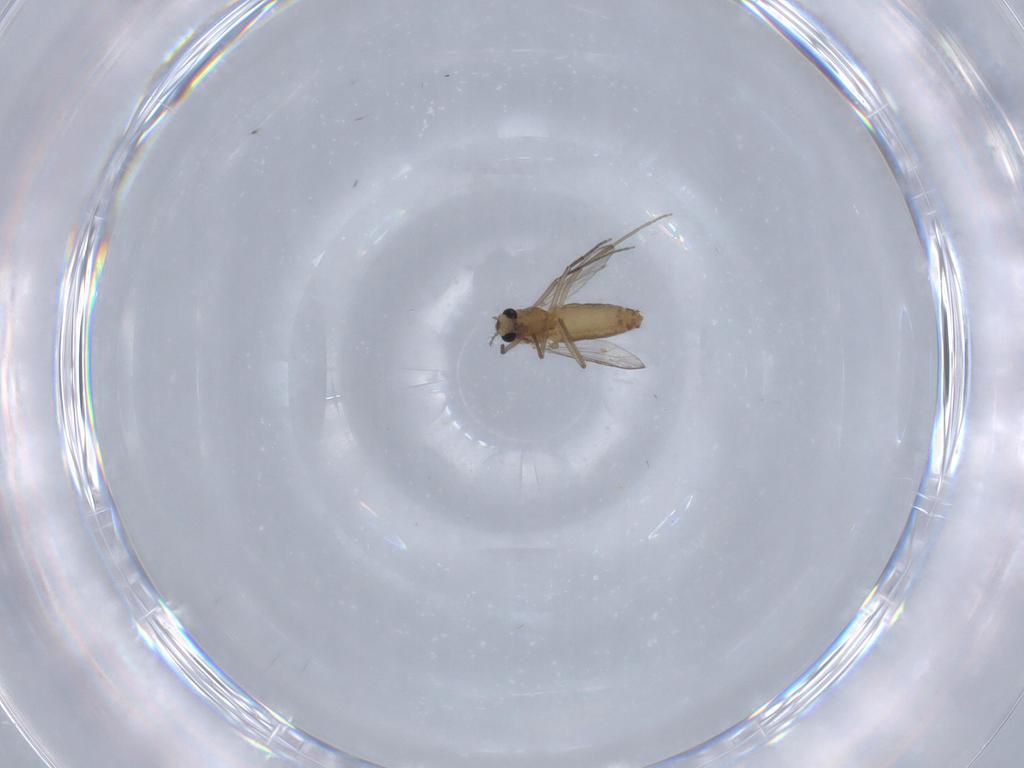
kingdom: Animalia
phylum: Arthropoda
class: Insecta
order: Diptera
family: Chironomidae
